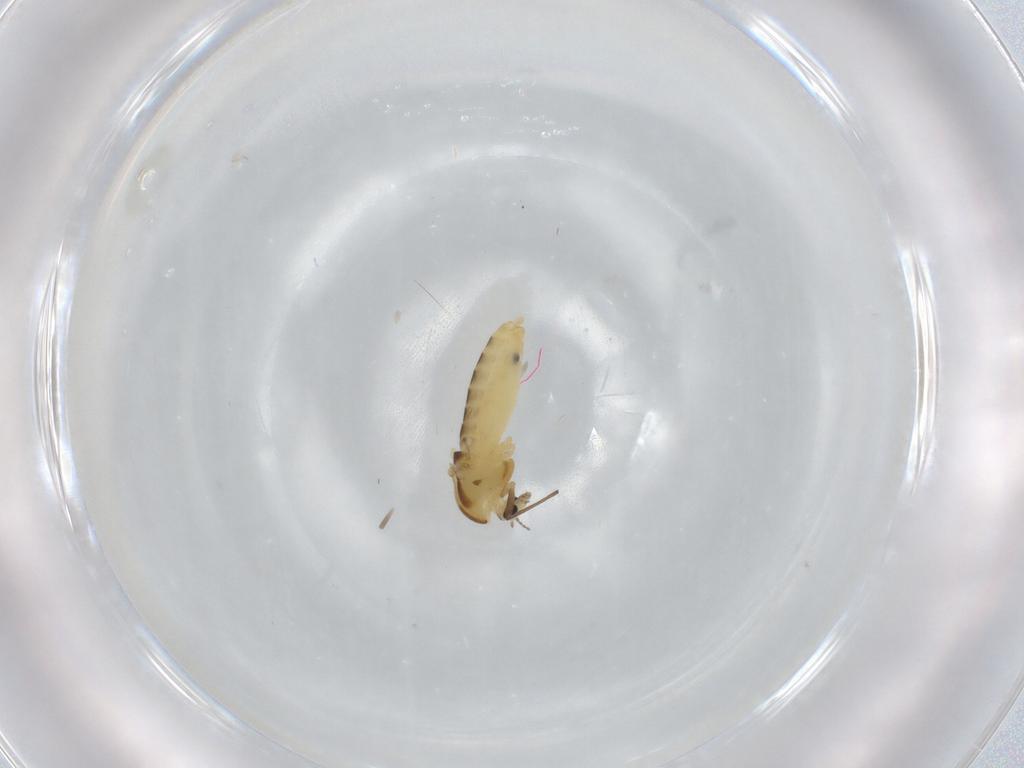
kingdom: Animalia
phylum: Arthropoda
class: Insecta
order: Diptera
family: Chironomidae
